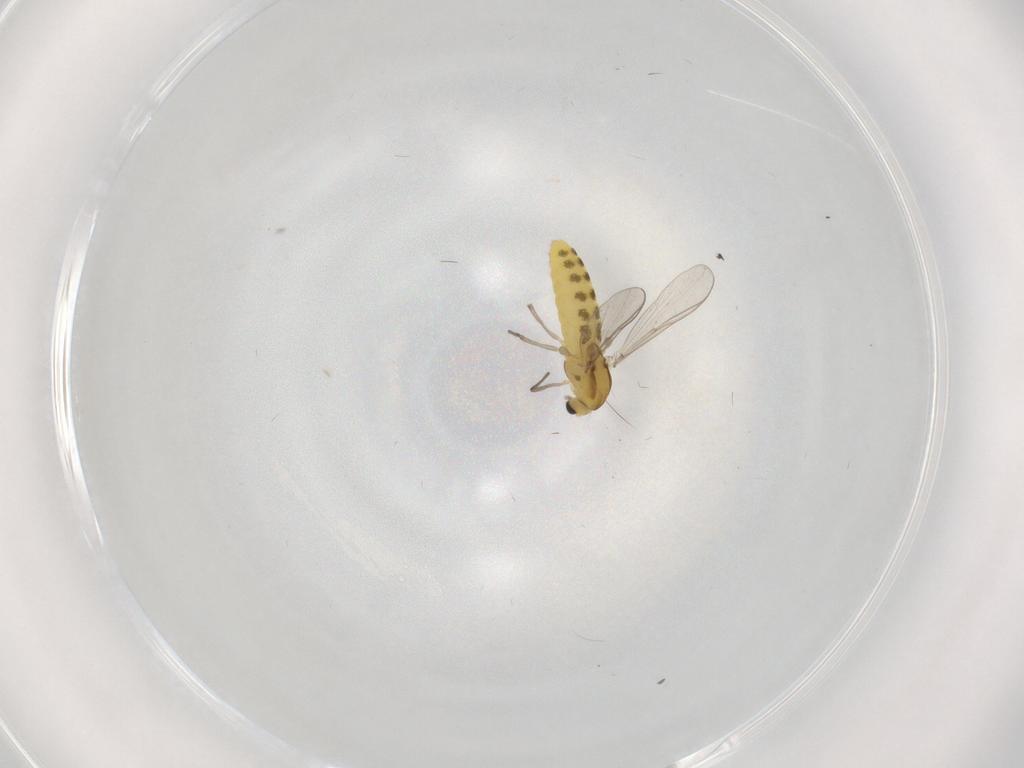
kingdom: Animalia
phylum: Arthropoda
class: Insecta
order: Diptera
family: Chironomidae
